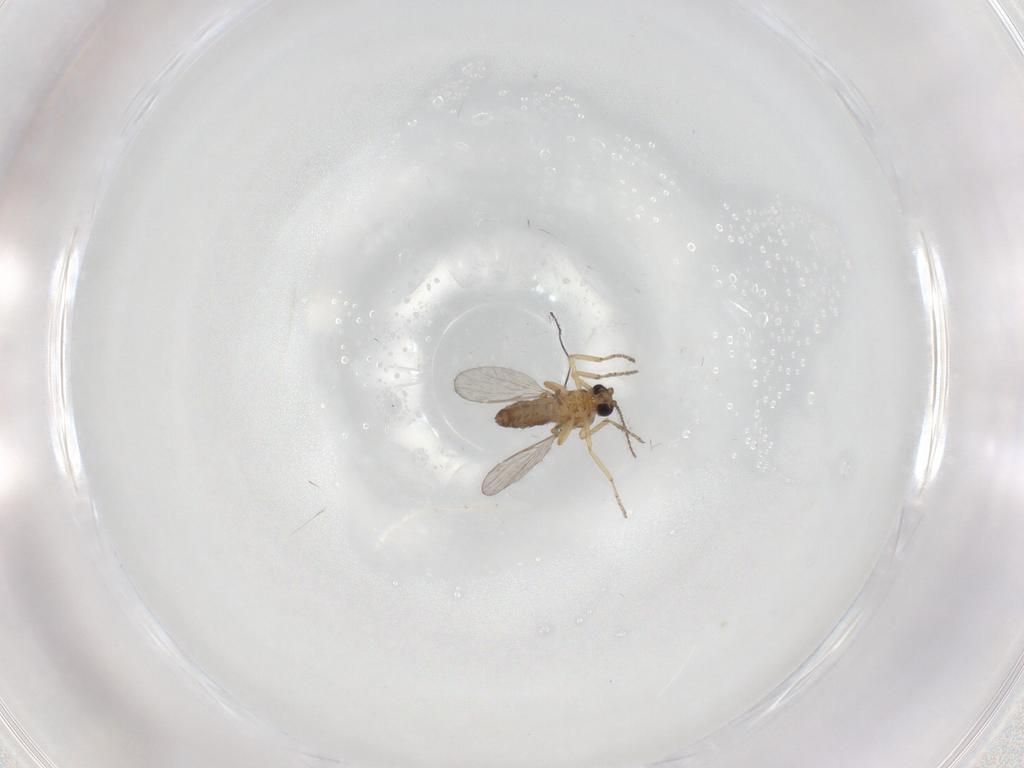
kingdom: Animalia
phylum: Arthropoda
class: Insecta
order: Diptera
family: Ceratopogonidae
